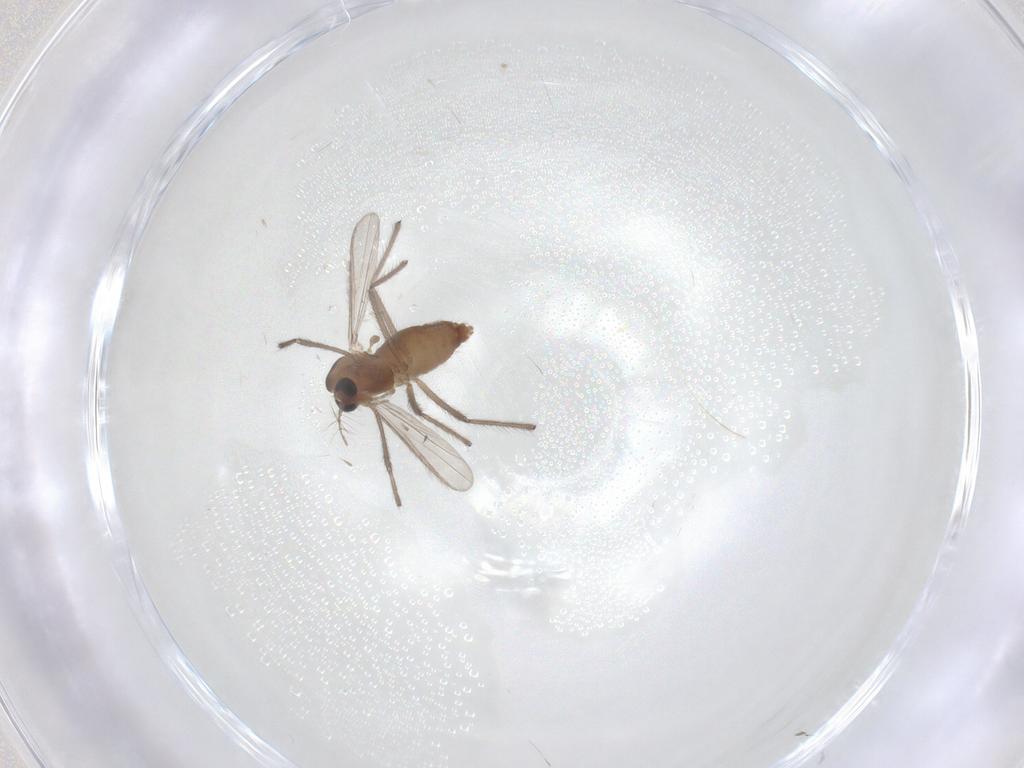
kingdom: Animalia
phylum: Arthropoda
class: Insecta
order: Diptera
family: Chironomidae
